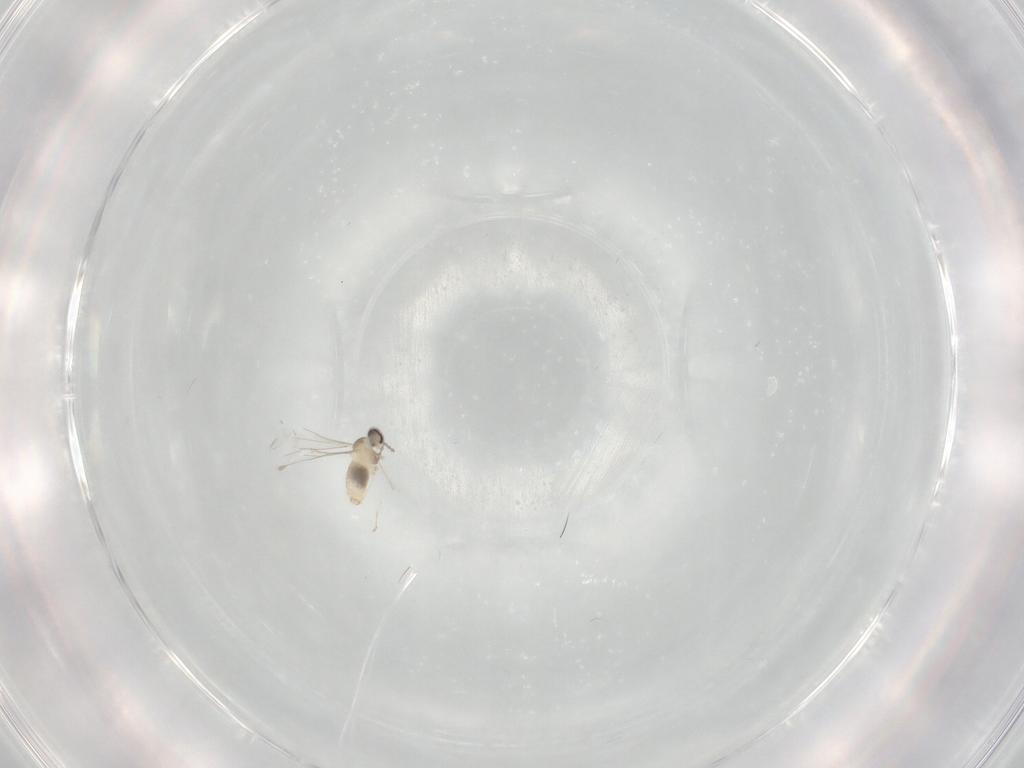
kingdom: Animalia
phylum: Arthropoda
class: Insecta
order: Diptera
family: Cecidomyiidae
